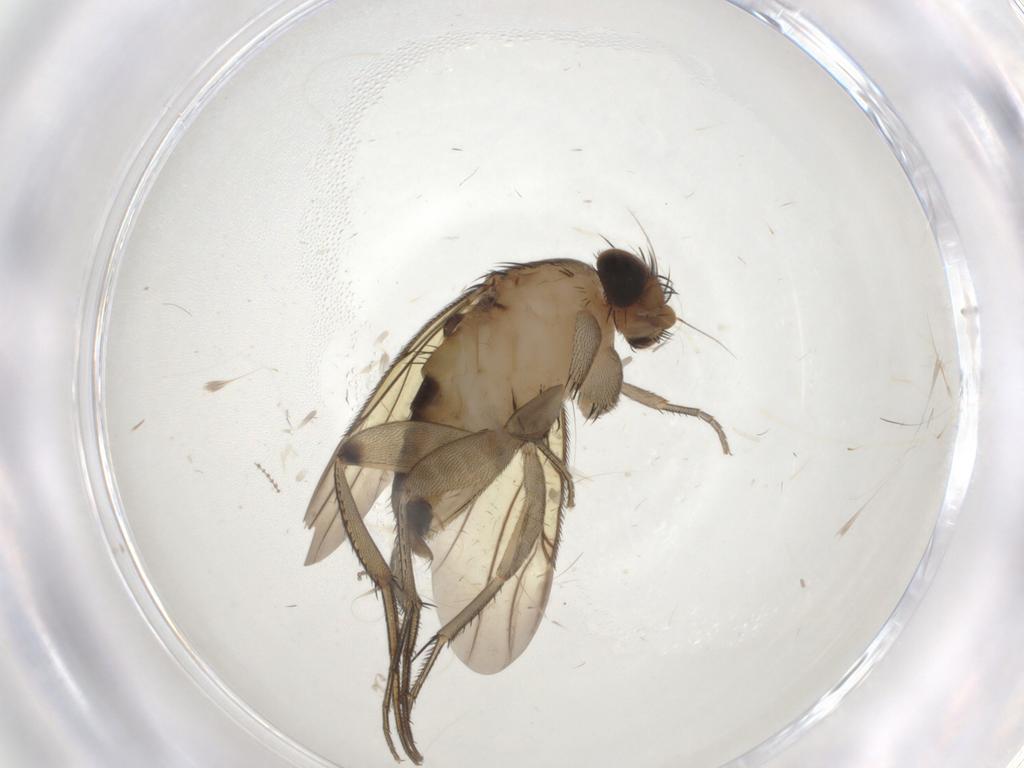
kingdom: Animalia
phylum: Arthropoda
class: Insecta
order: Diptera
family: Phoridae
